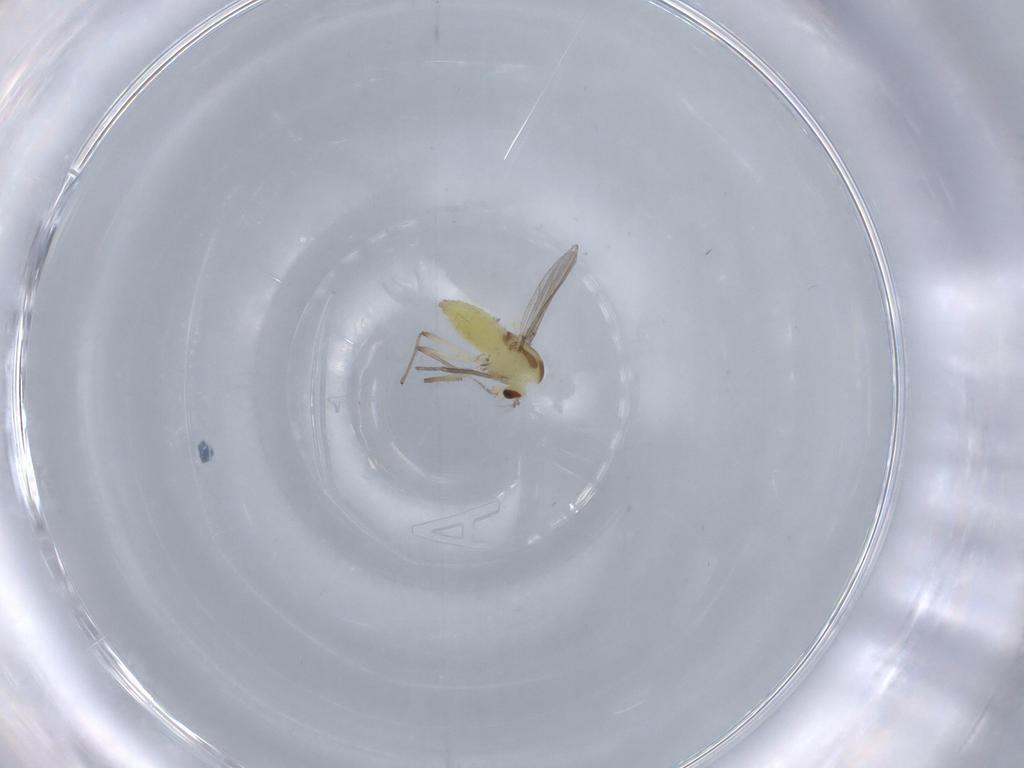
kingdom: Animalia
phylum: Arthropoda
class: Insecta
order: Diptera
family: Chironomidae
